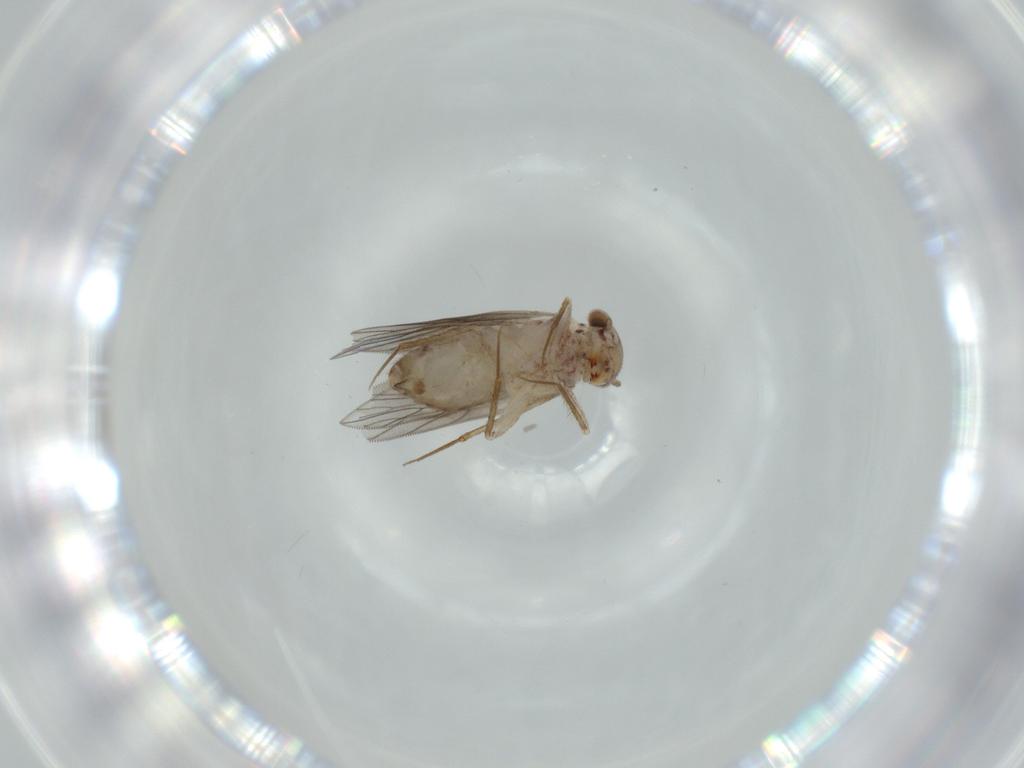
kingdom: Animalia
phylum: Arthropoda
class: Insecta
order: Psocodea
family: Lepidopsocidae
